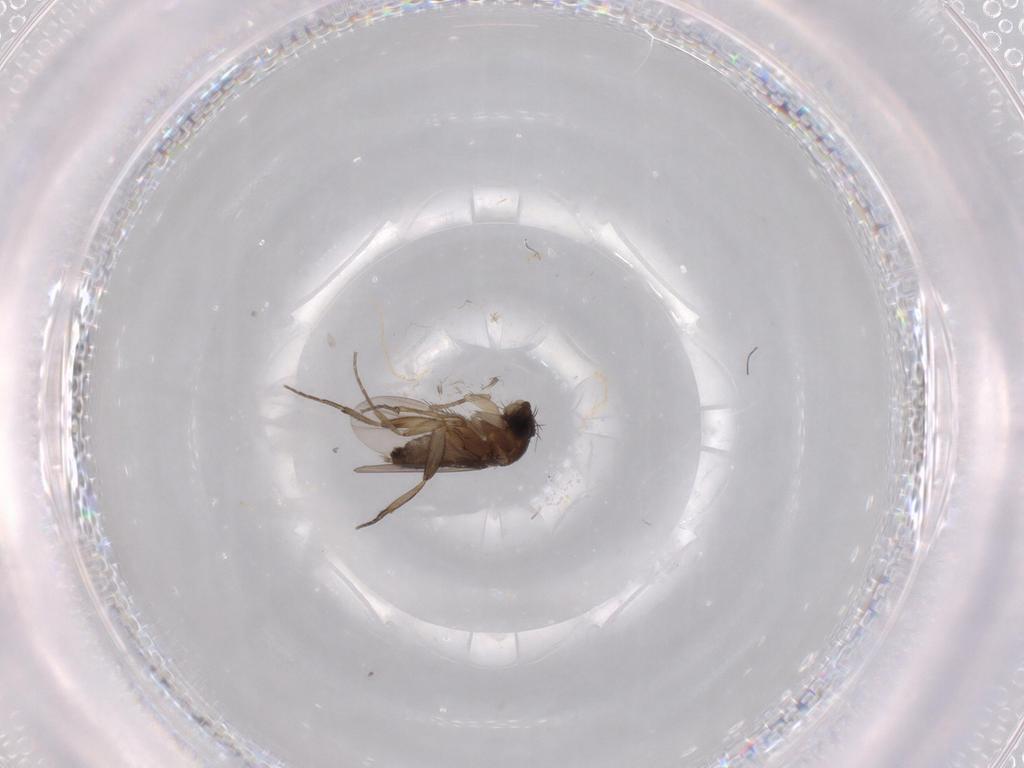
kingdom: Animalia
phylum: Arthropoda
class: Insecta
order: Diptera
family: Phoridae
